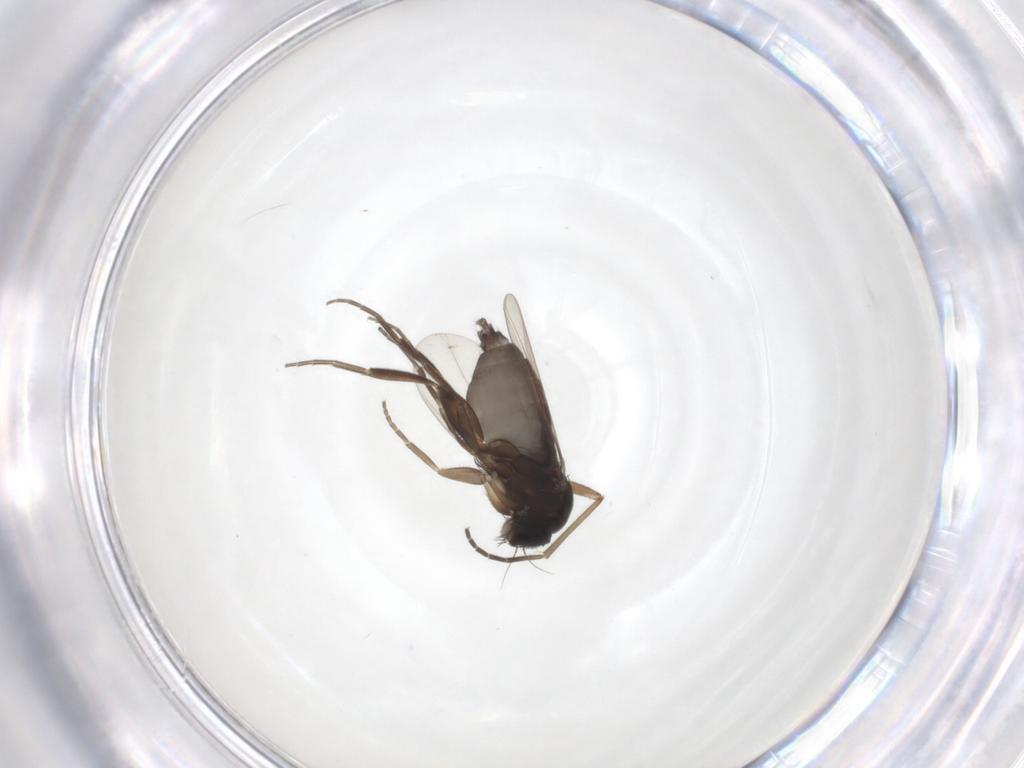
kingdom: Animalia
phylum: Arthropoda
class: Insecta
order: Diptera
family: Phoridae
